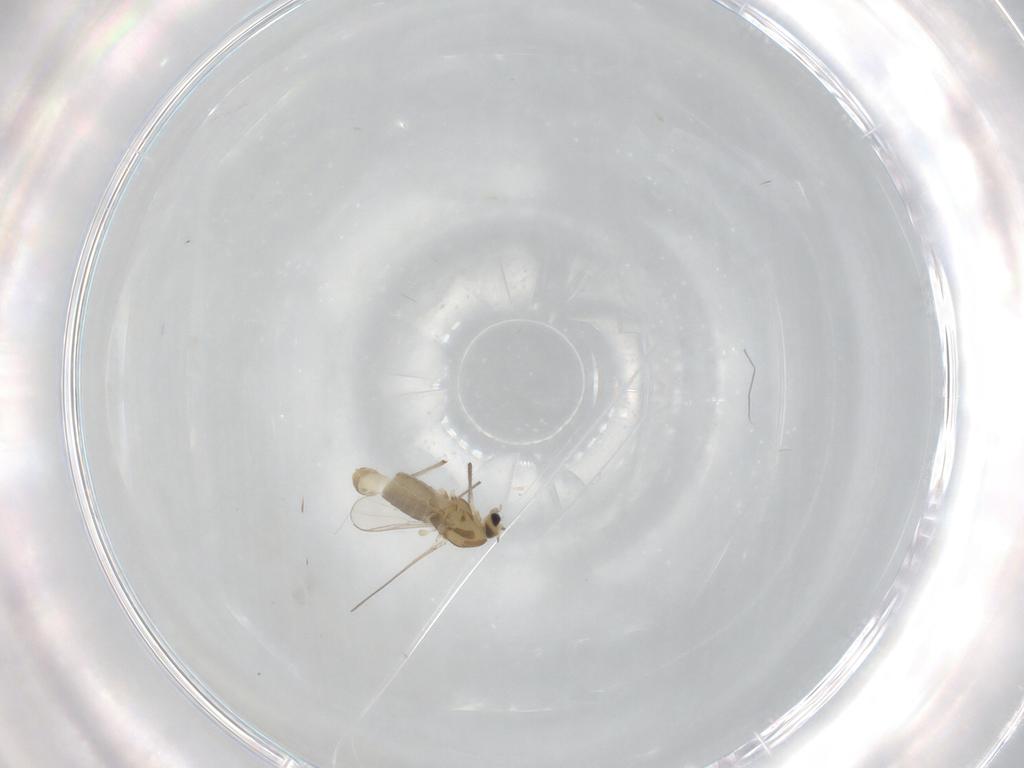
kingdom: Animalia
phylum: Arthropoda
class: Insecta
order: Diptera
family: Chironomidae
